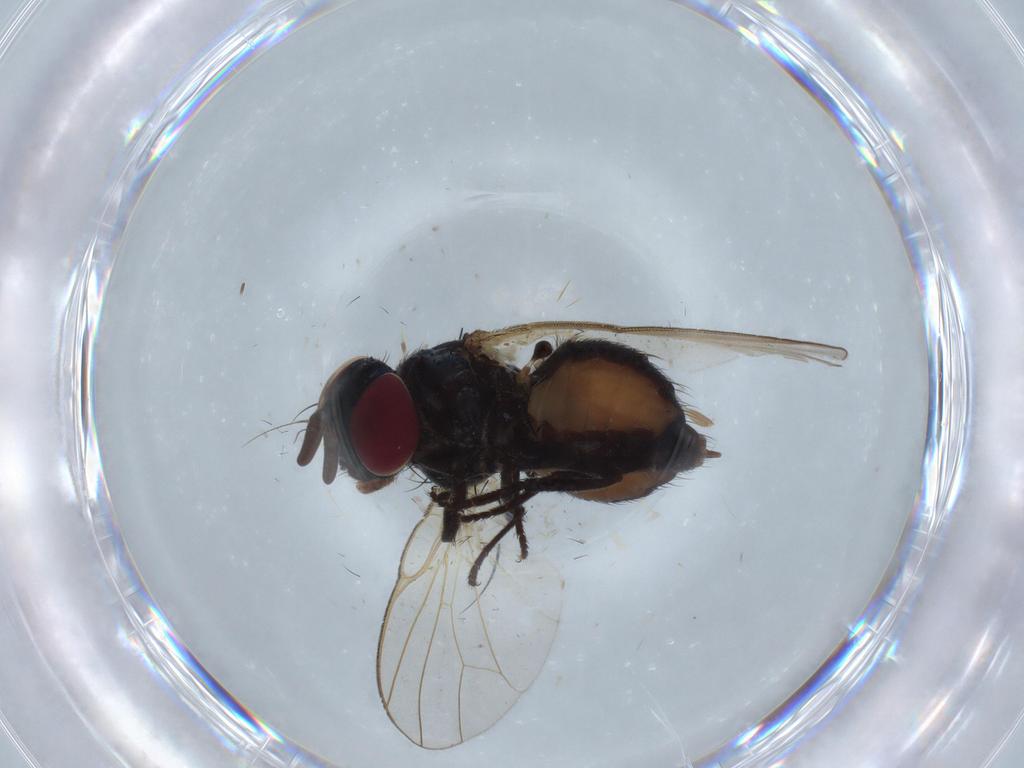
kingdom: Animalia
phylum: Arthropoda
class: Insecta
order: Diptera
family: Lonchaeidae
